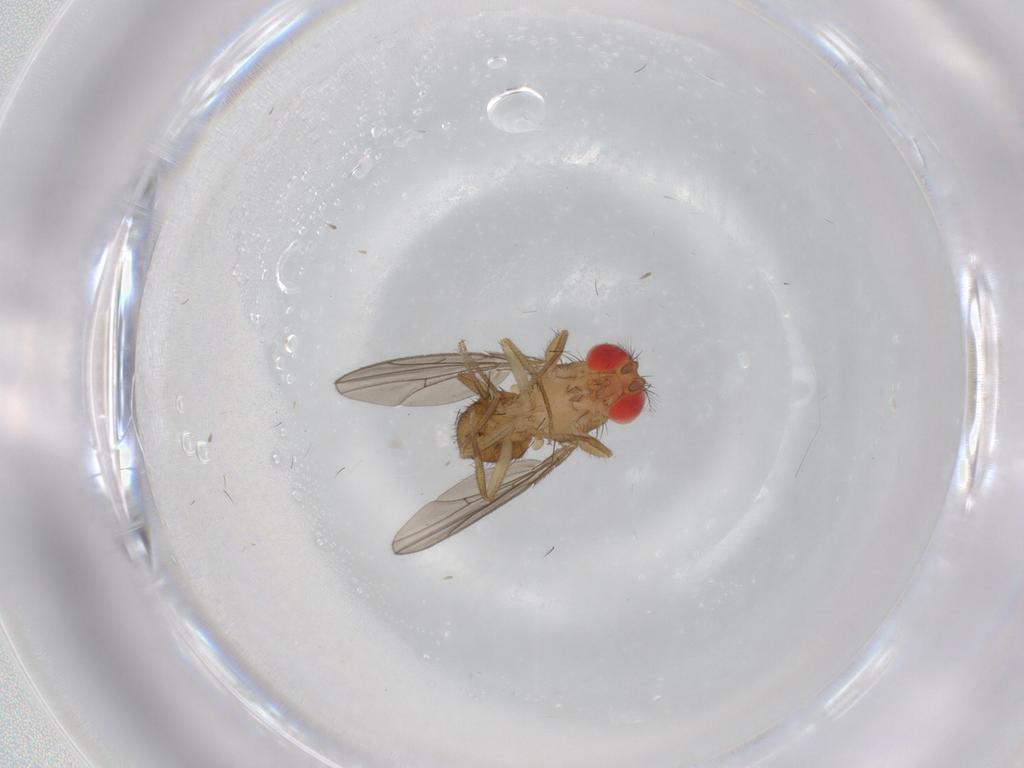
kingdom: Animalia
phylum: Arthropoda
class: Insecta
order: Diptera
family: Drosophilidae
